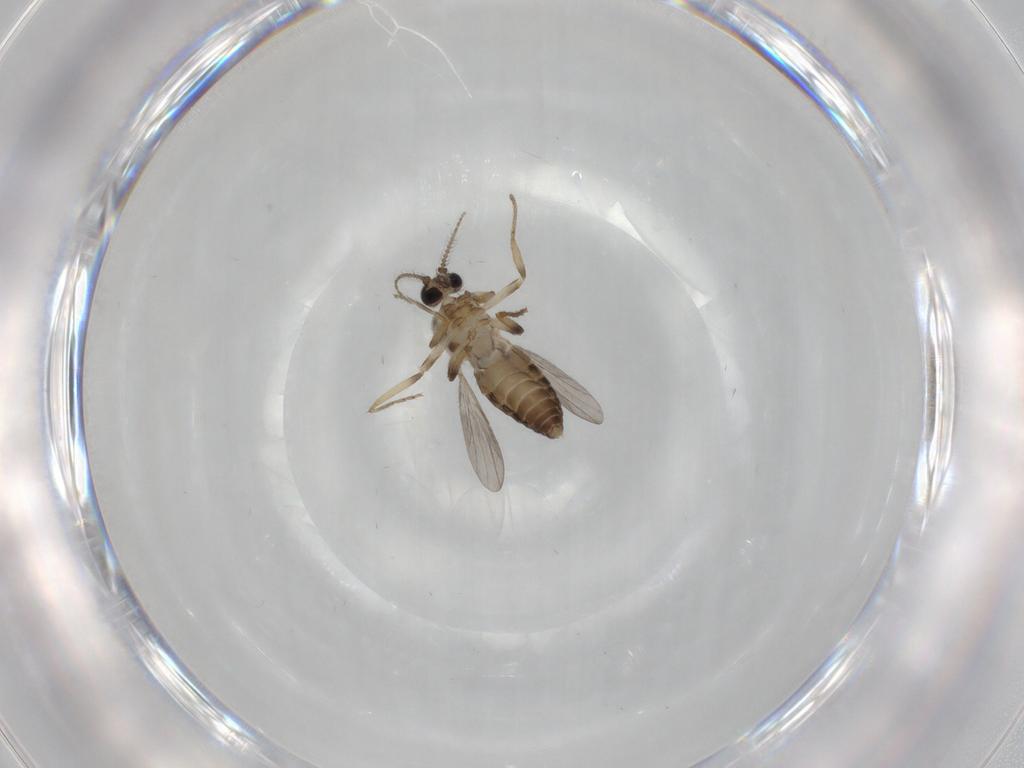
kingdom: Animalia
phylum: Arthropoda
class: Insecta
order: Diptera
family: Ceratopogonidae
